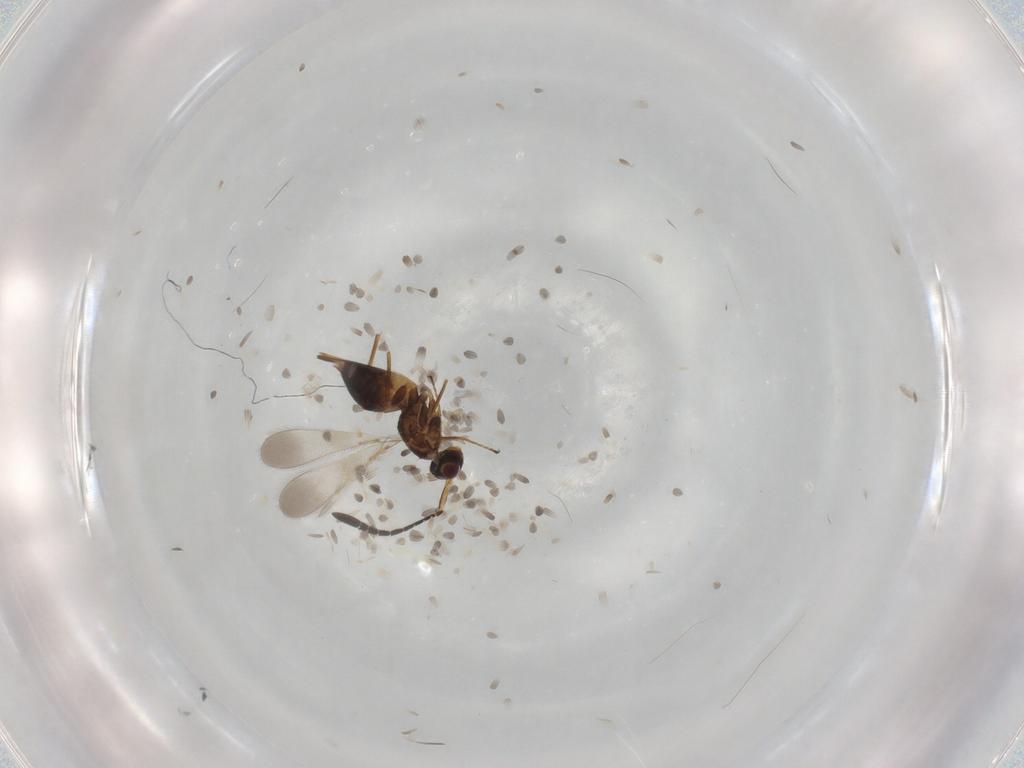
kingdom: Animalia
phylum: Arthropoda
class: Insecta
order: Hymenoptera
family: Mymaridae
